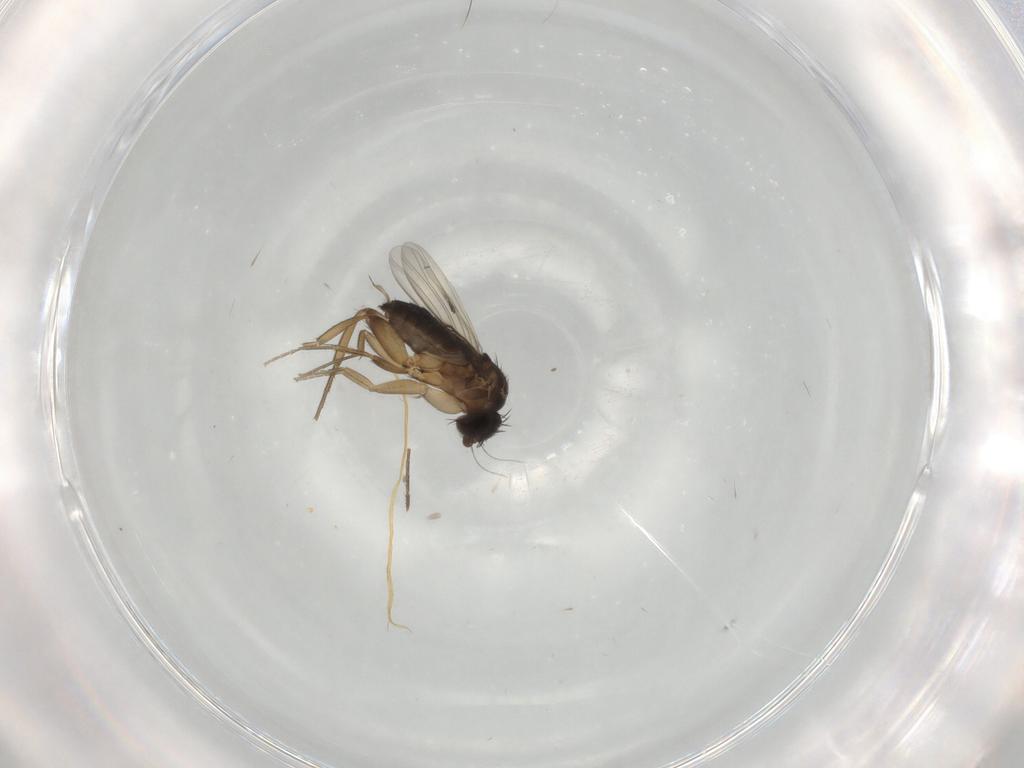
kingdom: Animalia
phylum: Arthropoda
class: Insecta
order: Diptera
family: Phoridae
